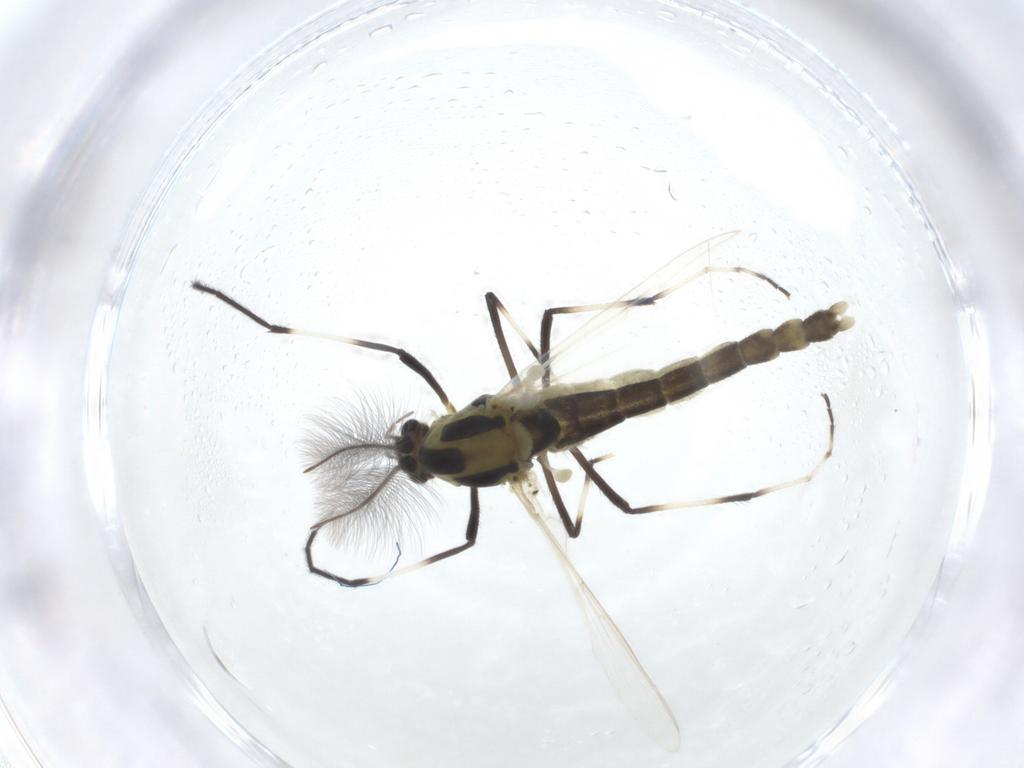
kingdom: Animalia
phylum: Arthropoda
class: Insecta
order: Diptera
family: Chironomidae
